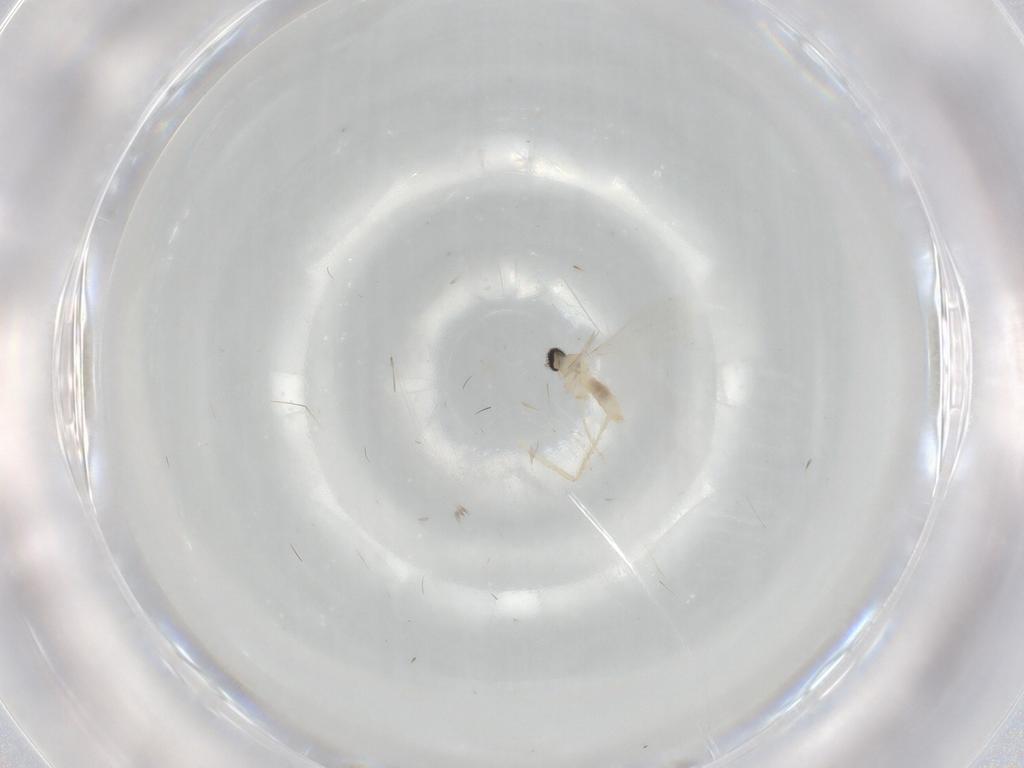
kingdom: Animalia
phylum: Arthropoda
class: Insecta
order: Diptera
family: Cecidomyiidae
